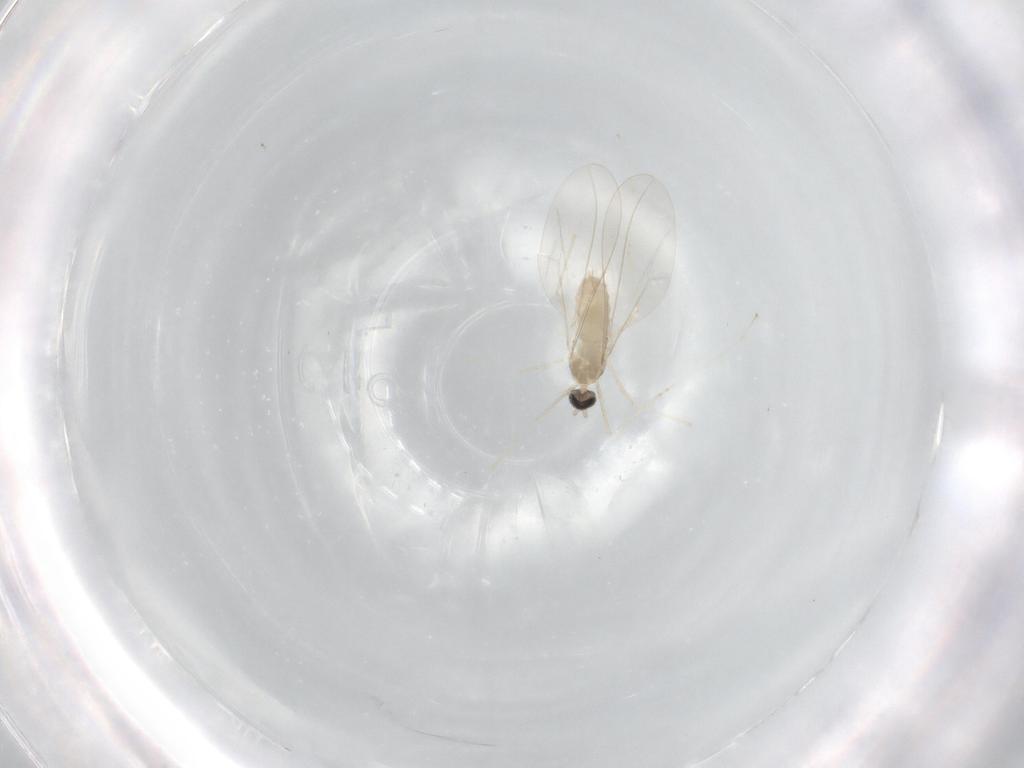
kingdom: Animalia
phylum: Arthropoda
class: Insecta
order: Diptera
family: Cecidomyiidae
